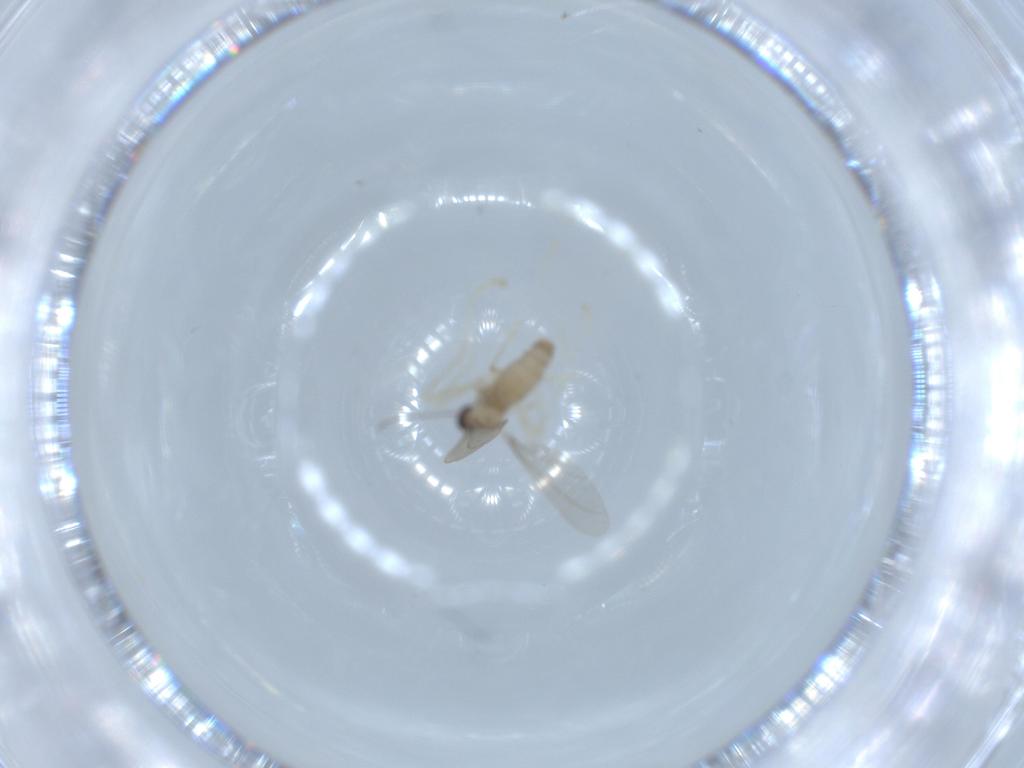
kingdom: Animalia
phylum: Arthropoda
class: Insecta
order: Diptera
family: Cecidomyiidae
